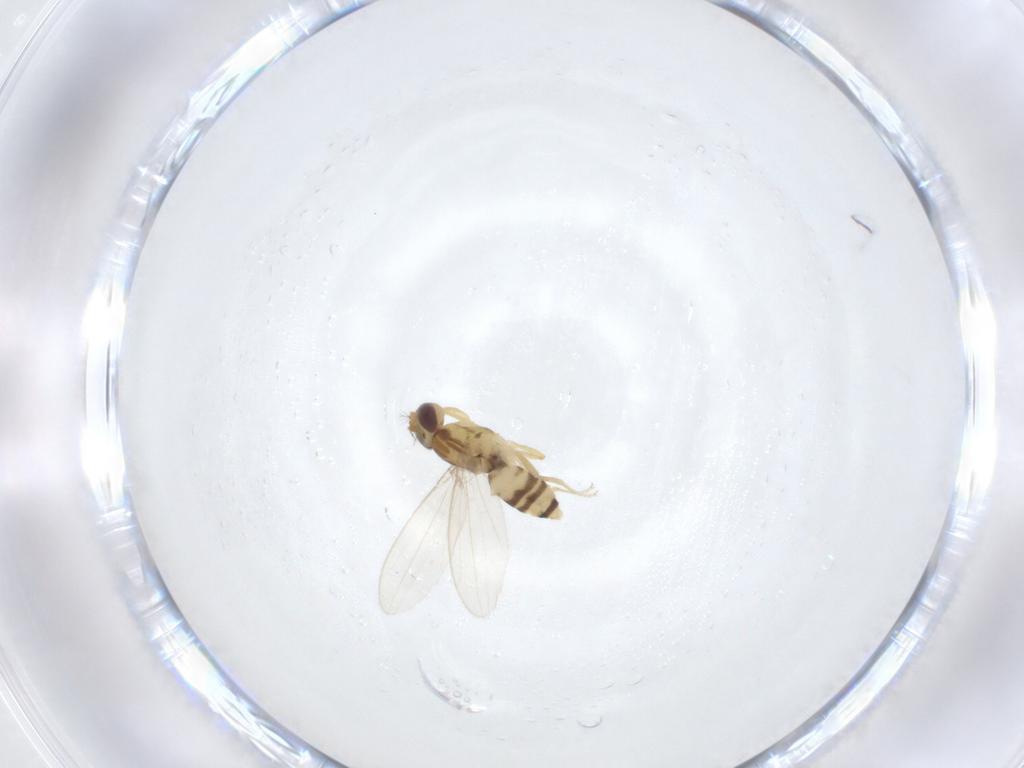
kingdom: Animalia
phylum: Arthropoda
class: Insecta
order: Diptera
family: Periscelididae
